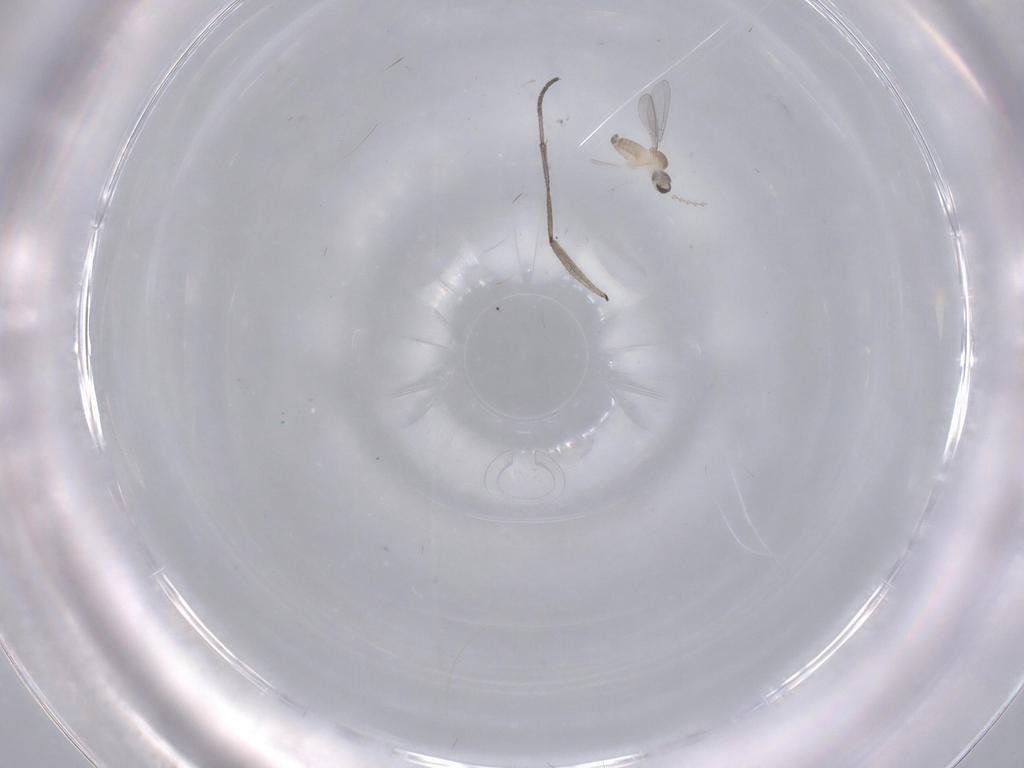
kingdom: Animalia
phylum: Arthropoda
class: Insecta
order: Diptera
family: Cecidomyiidae
